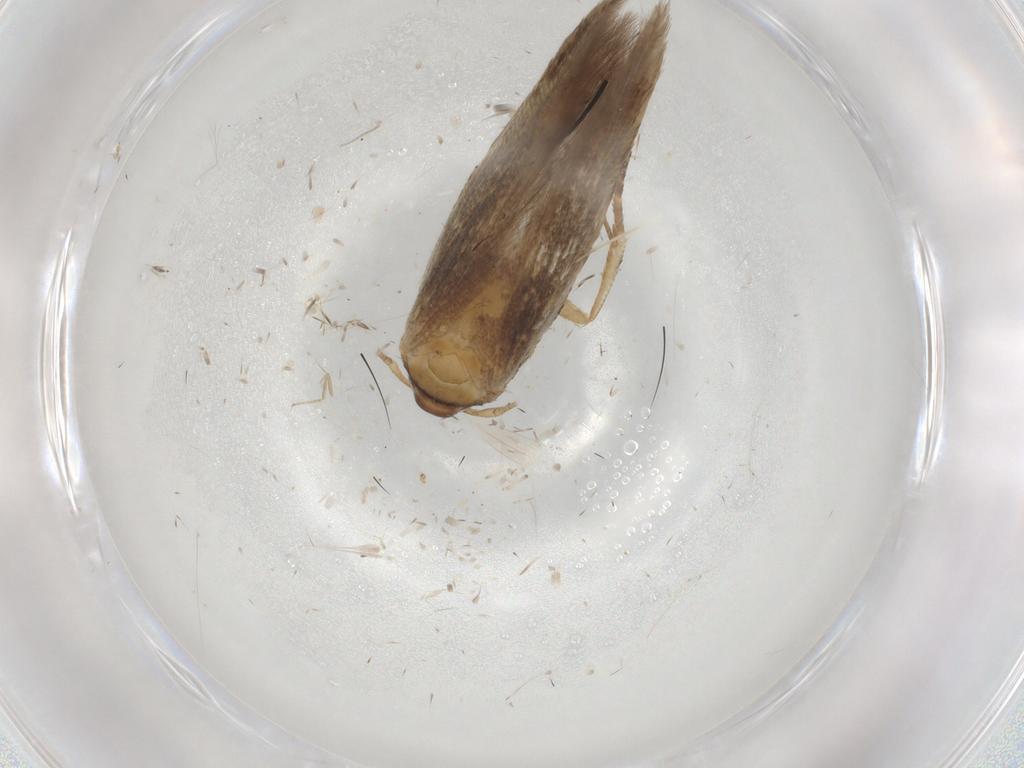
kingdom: Animalia
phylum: Arthropoda
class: Insecta
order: Lepidoptera
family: Cosmopterigidae
